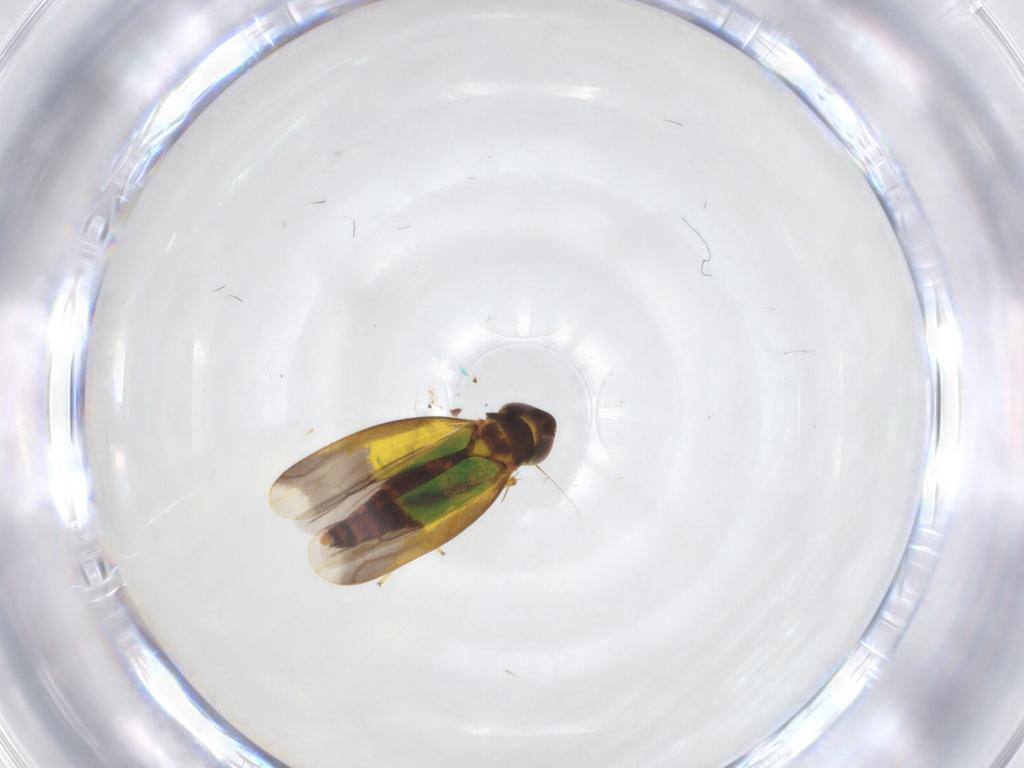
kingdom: Animalia
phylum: Arthropoda
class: Insecta
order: Hemiptera
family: Cicadellidae
